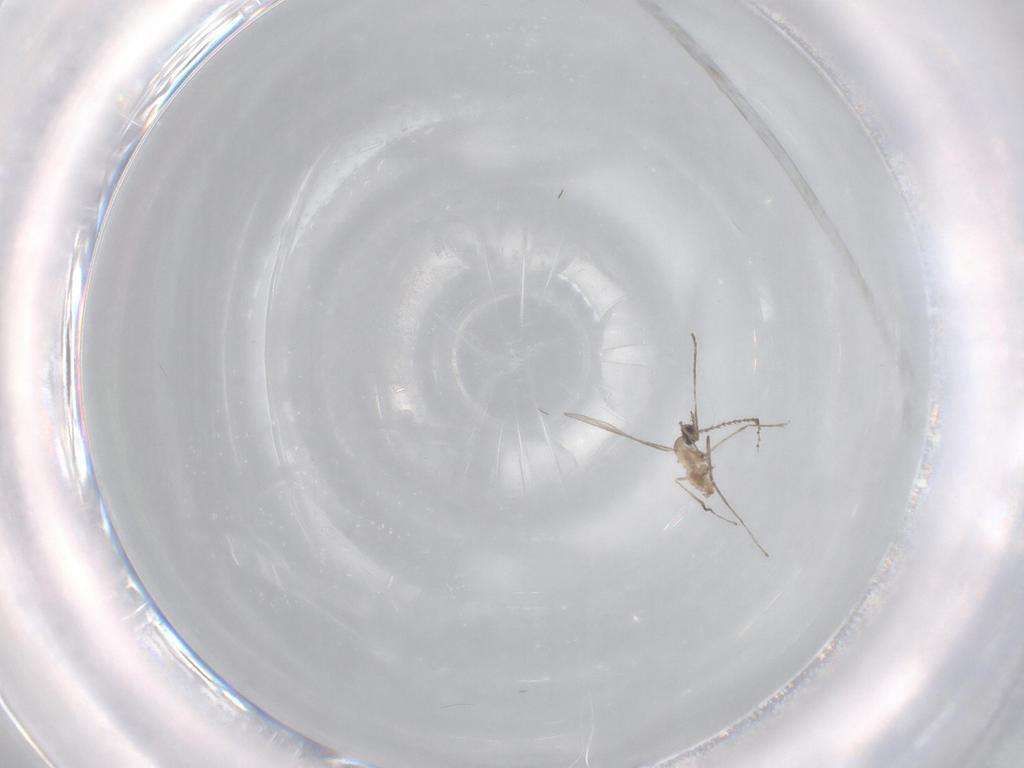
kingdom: Animalia
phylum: Arthropoda
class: Insecta
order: Diptera
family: Cecidomyiidae
